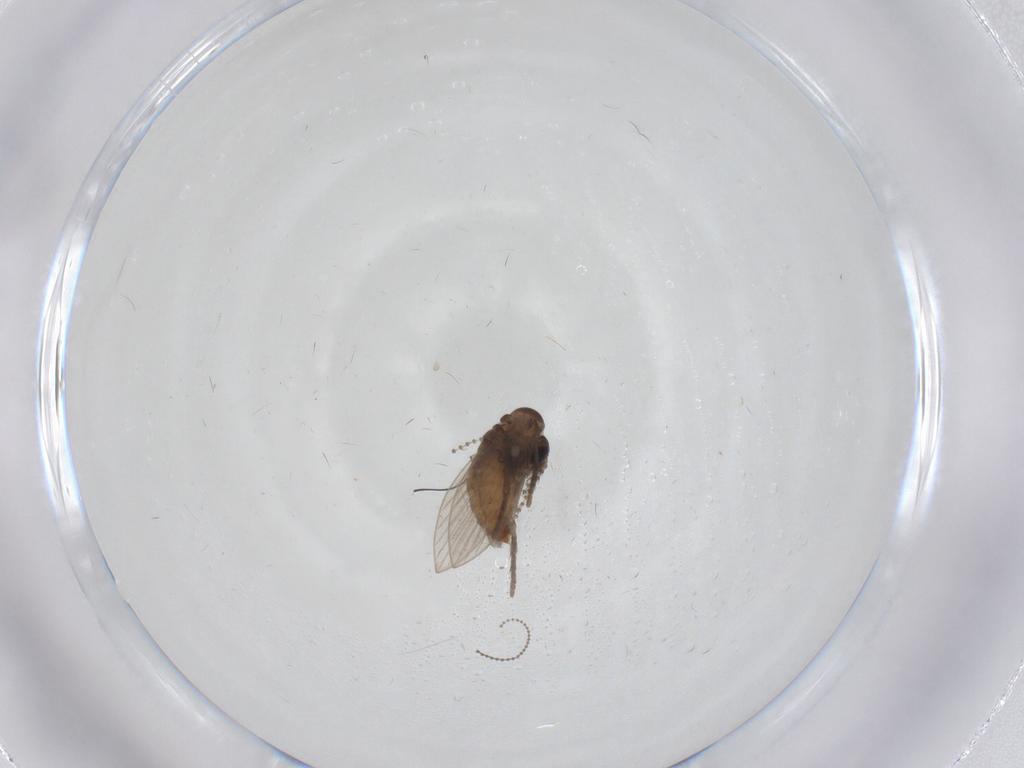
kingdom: Animalia
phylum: Arthropoda
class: Insecta
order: Diptera
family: Psychodidae
